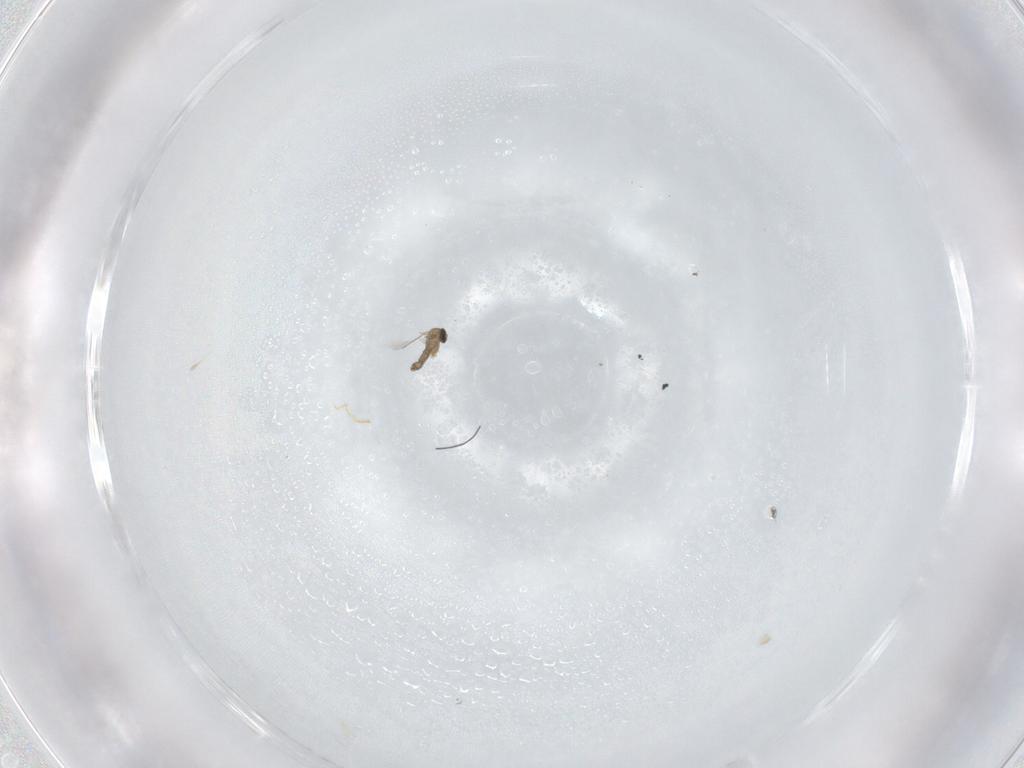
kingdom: Animalia
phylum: Arthropoda
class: Insecta
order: Diptera
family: Cecidomyiidae
